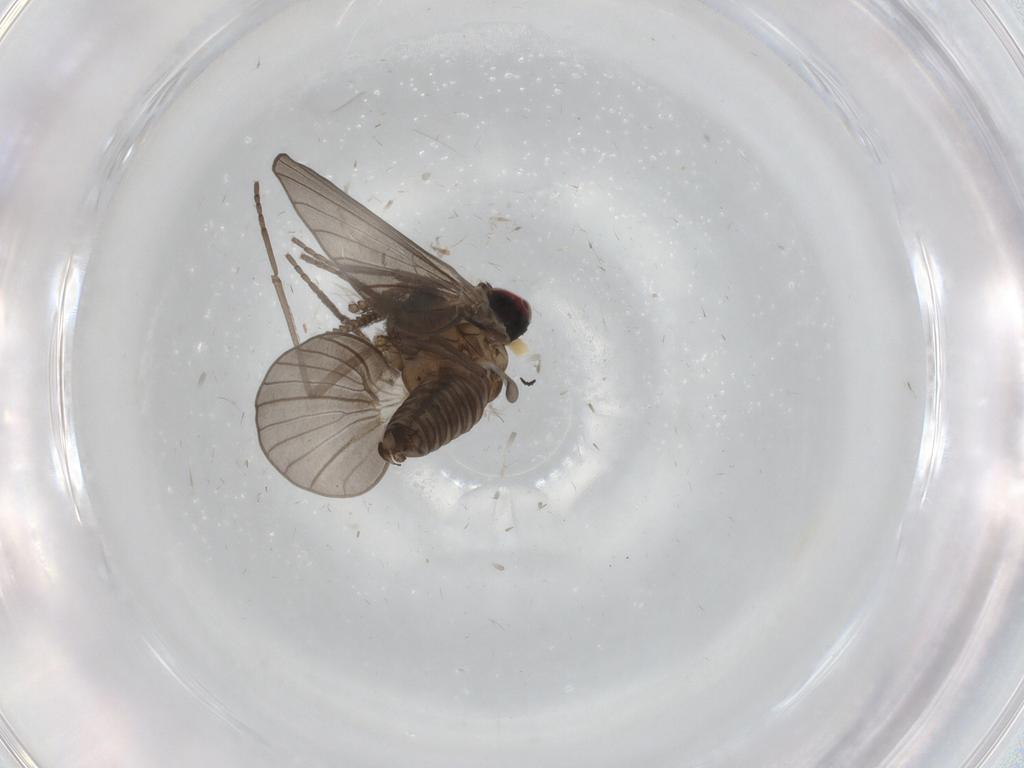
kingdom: Animalia
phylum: Arthropoda
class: Insecta
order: Diptera
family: Dolichopodidae
